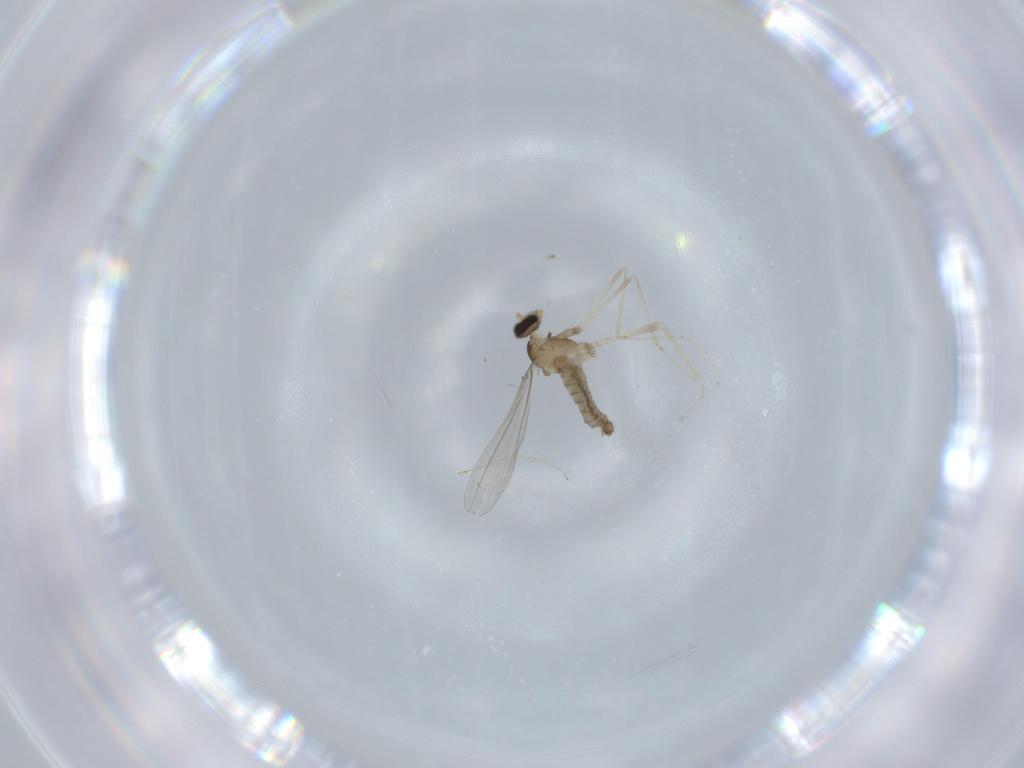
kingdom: Animalia
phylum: Arthropoda
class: Insecta
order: Diptera
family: Cecidomyiidae
